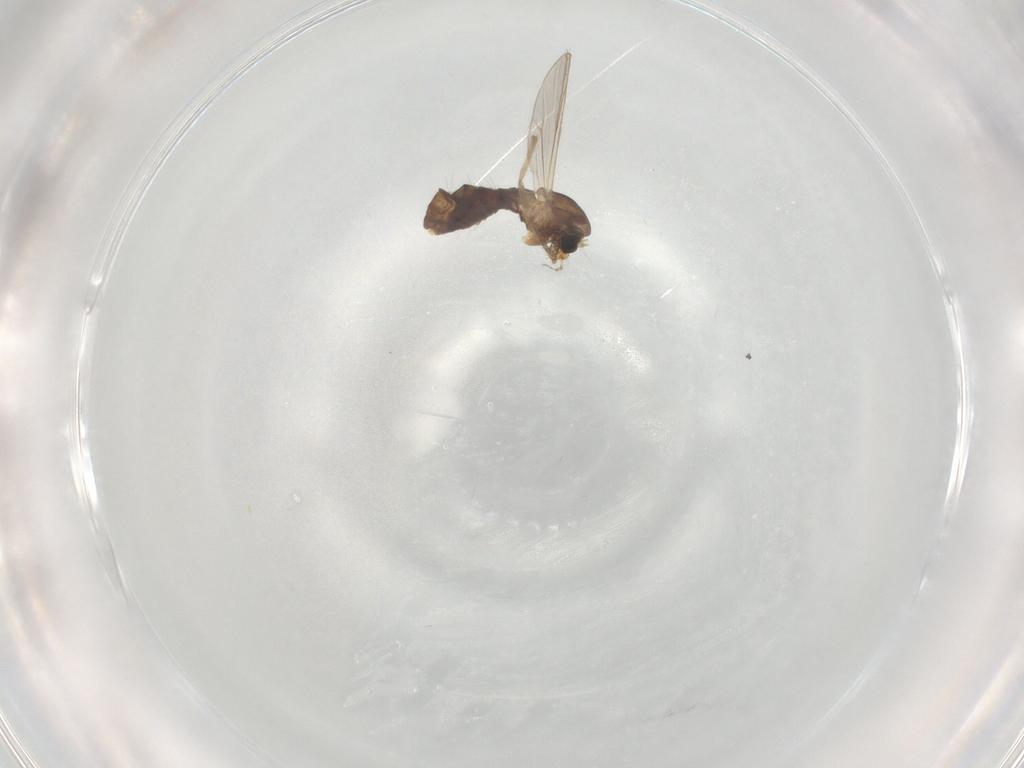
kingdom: Animalia
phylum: Arthropoda
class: Insecta
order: Diptera
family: Chironomidae
